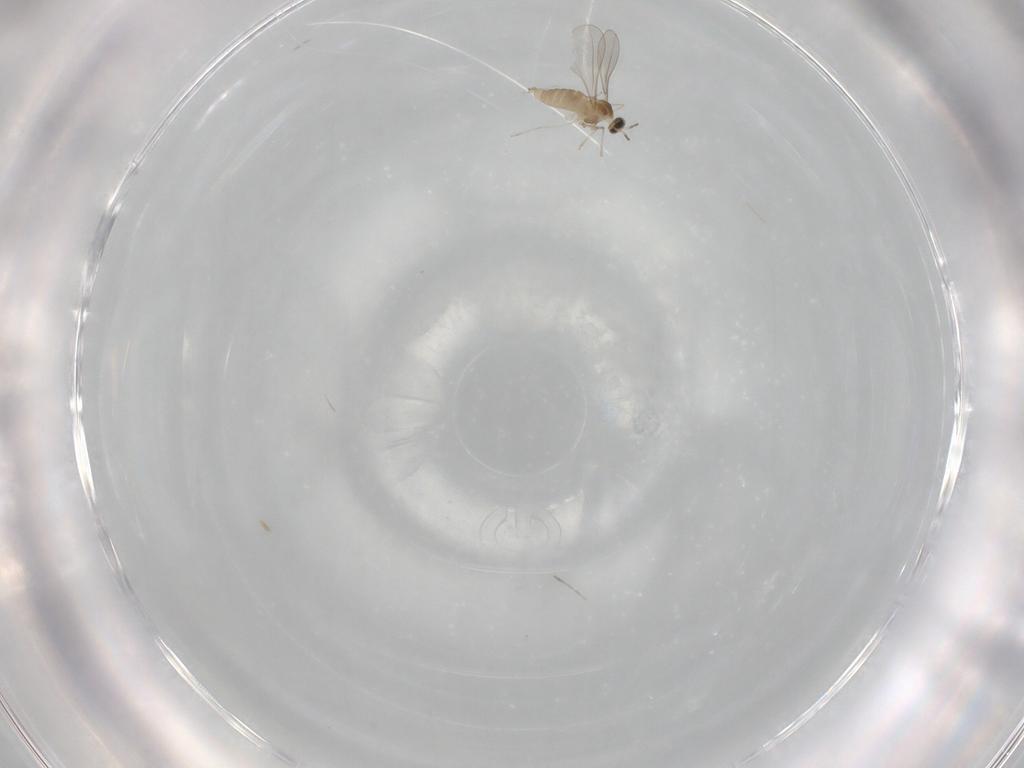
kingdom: Animalia
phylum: Arthropoda
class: Insecta
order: Diptera
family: Cecidomyiidae
